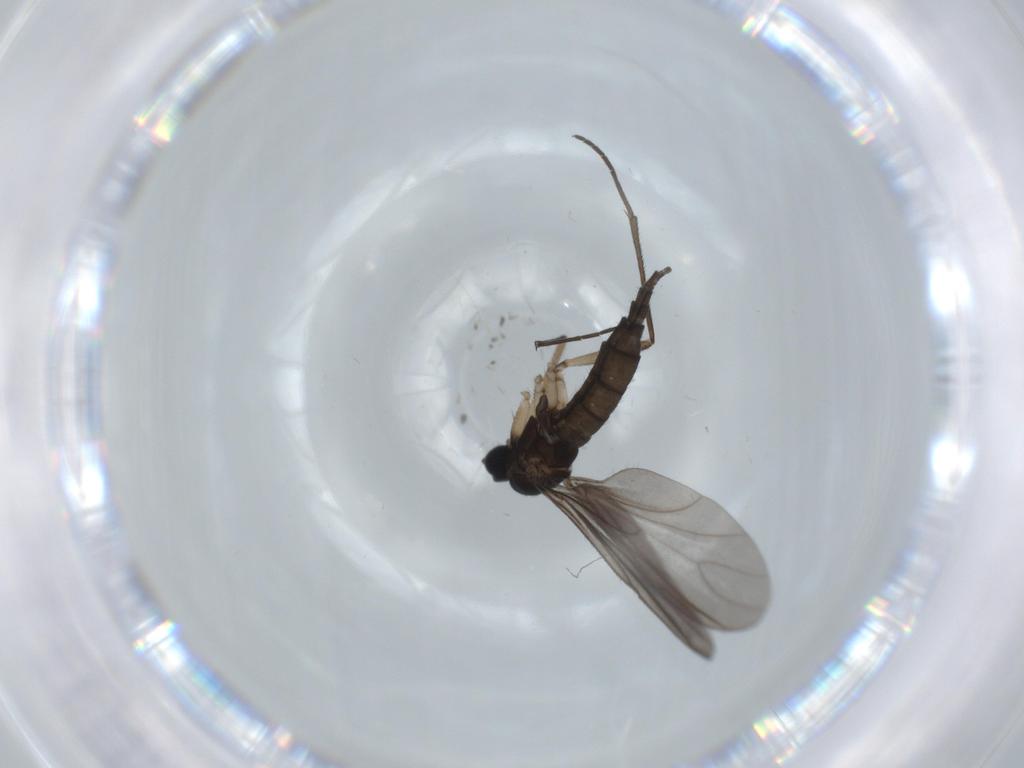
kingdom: Animalia
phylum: Arthropoda
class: Insecta
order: Diptera
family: Sciaridae
